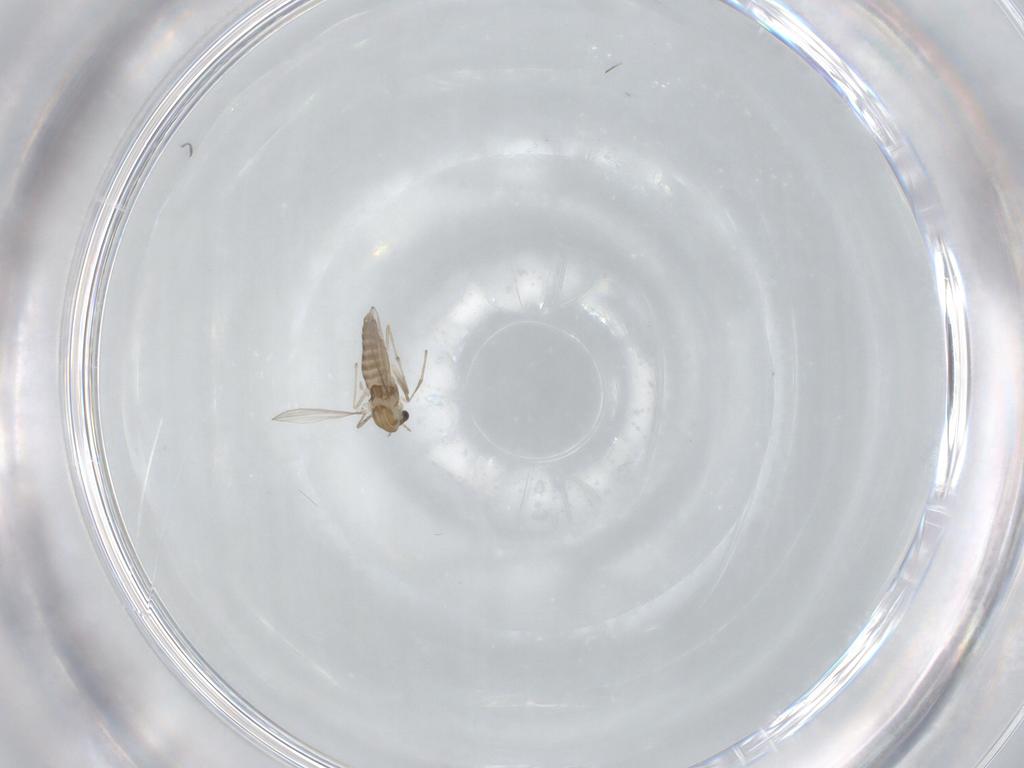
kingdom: Animalia
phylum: Arthropoda
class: Insecta
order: Diptera
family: Chironomidae
